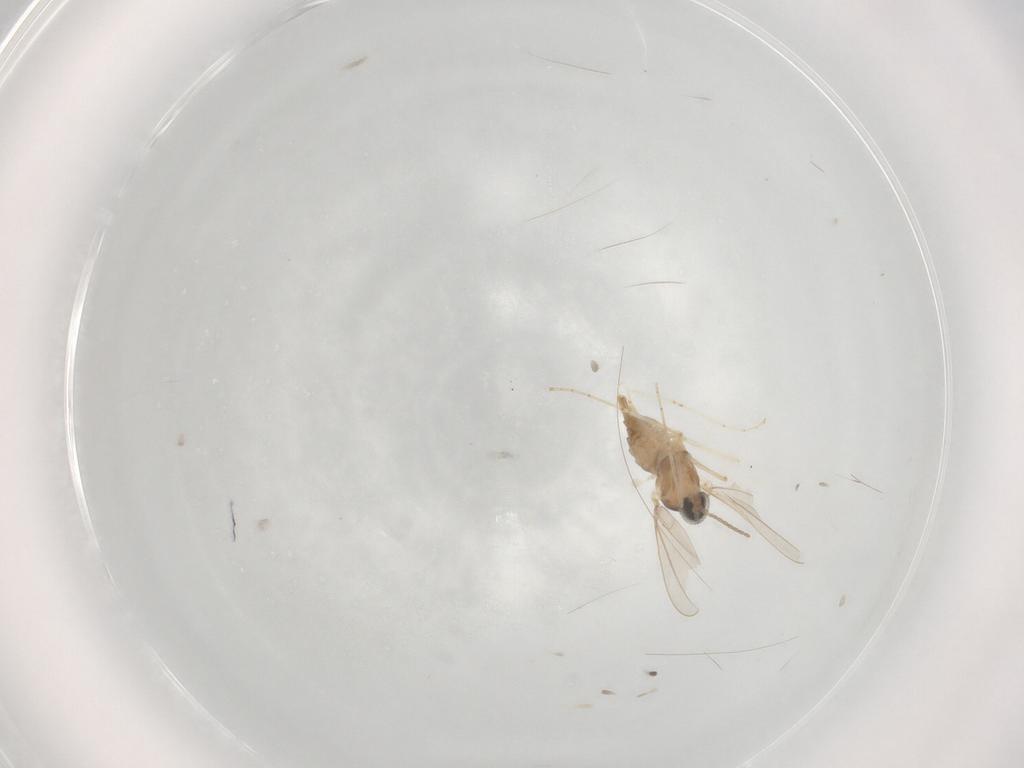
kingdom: Animalia
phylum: Arthropoda
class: Insecta
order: Diptera
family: Cecidomyiidae
